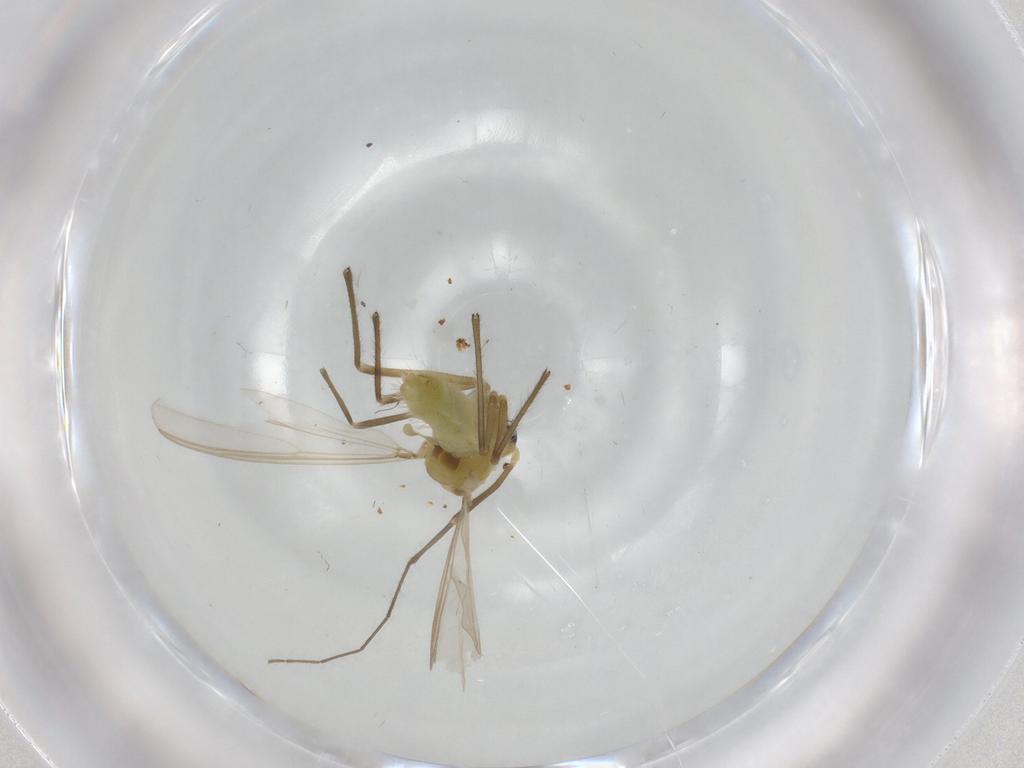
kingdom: Animalia
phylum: Arthropoda
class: Insecta
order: Diptera
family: Chironomidae
